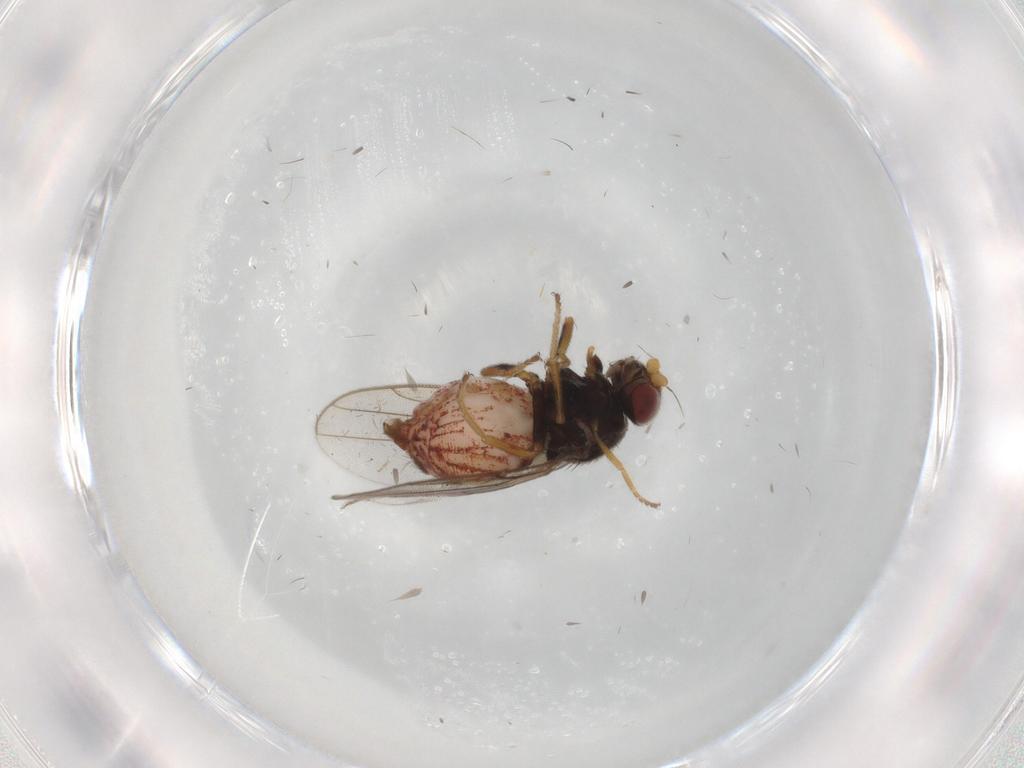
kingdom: Animalia
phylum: Arthropoda
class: Insecta
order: Diptera
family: Chloropidae
